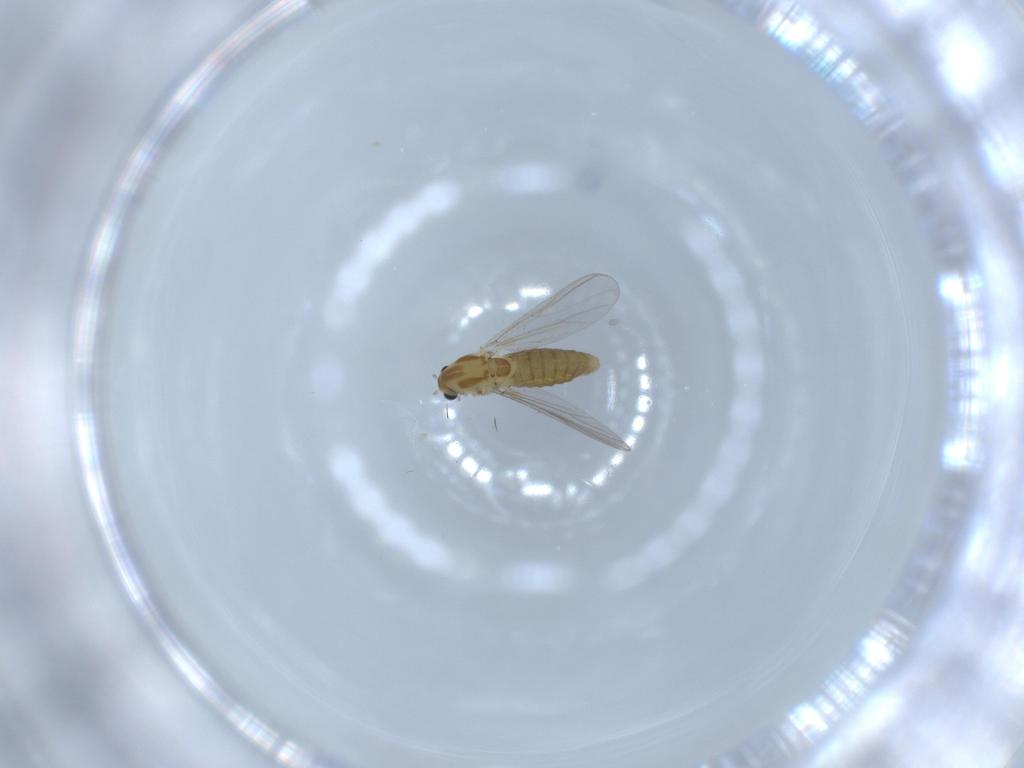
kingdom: Animalia
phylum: Arthropoda
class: Insecta
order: Diptera
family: Chironomidae
